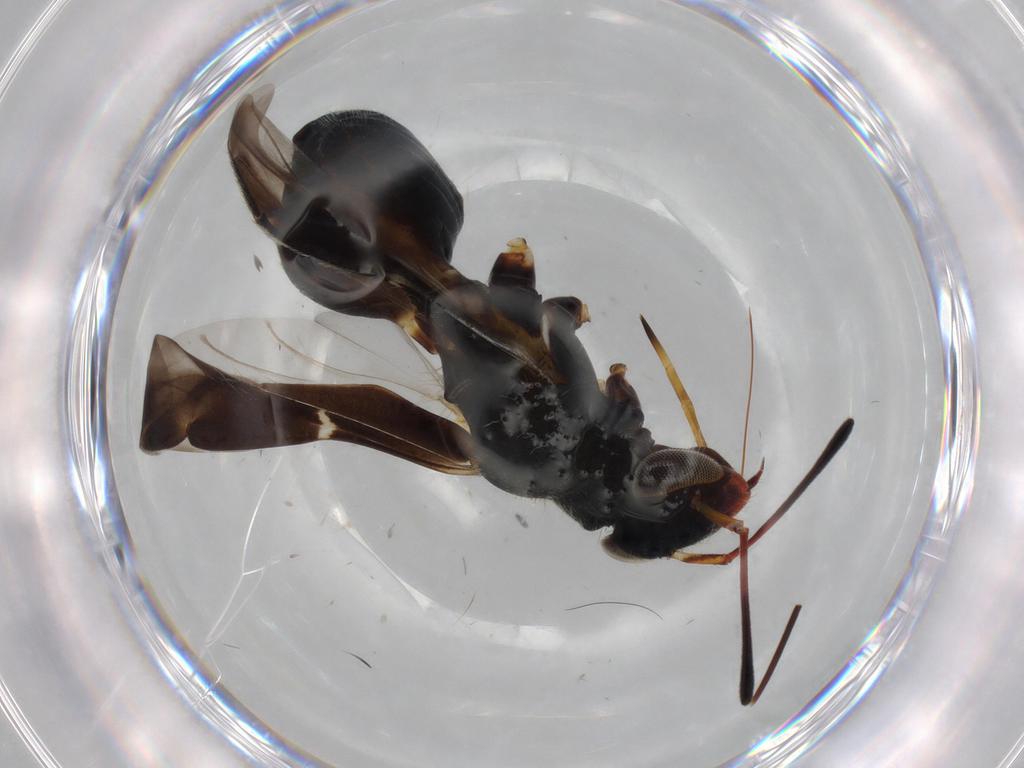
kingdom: Animalia
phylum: Arthropoda
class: Insecta
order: Hemiptera
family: Miridae
